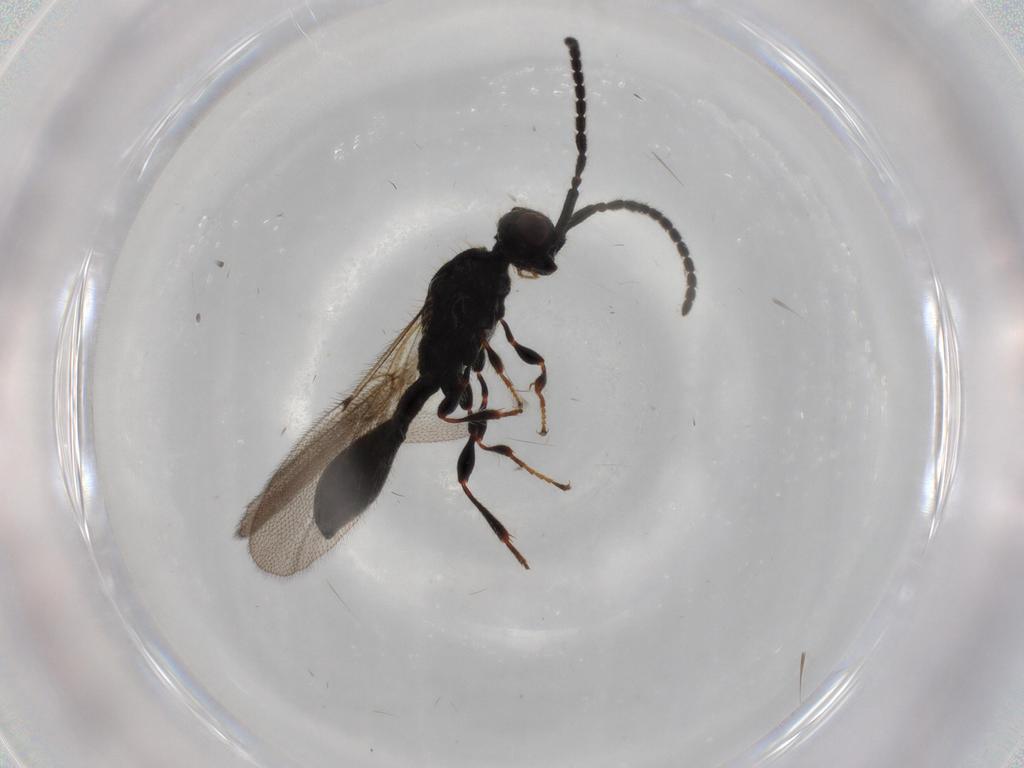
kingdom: Animalia
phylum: Arthropoda
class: Insecta
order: Hymenoptera
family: Diapriidae
